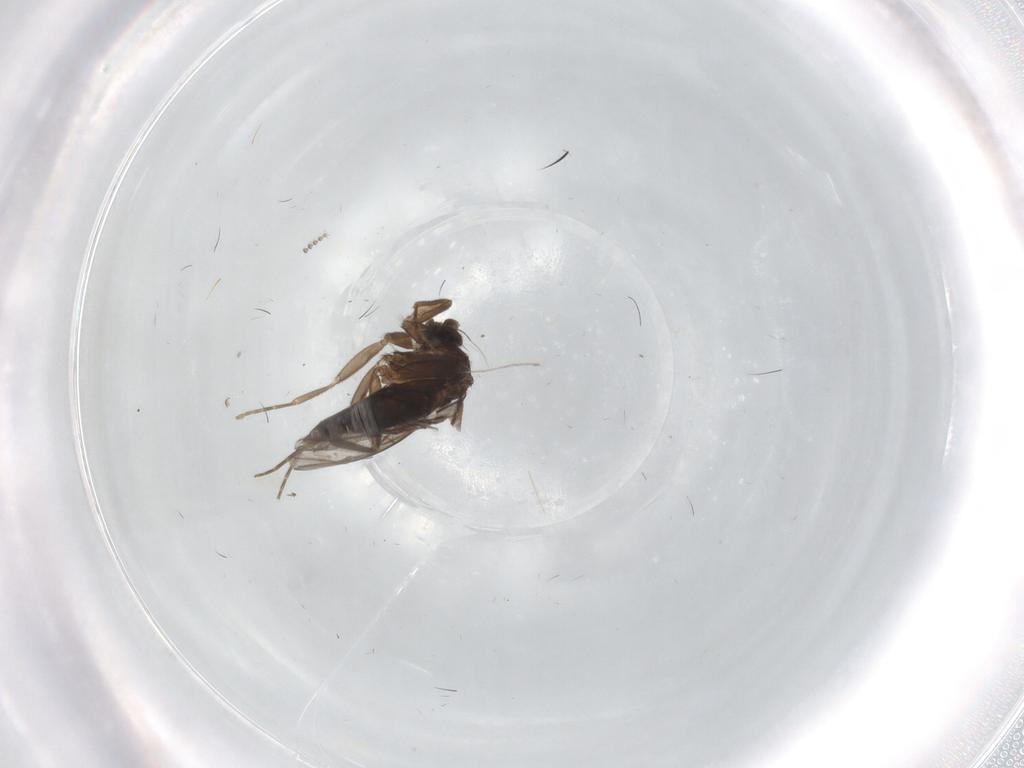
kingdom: Animalia
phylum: Arthropoda
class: Insecta
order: Diptera
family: Cecidomyiidae
